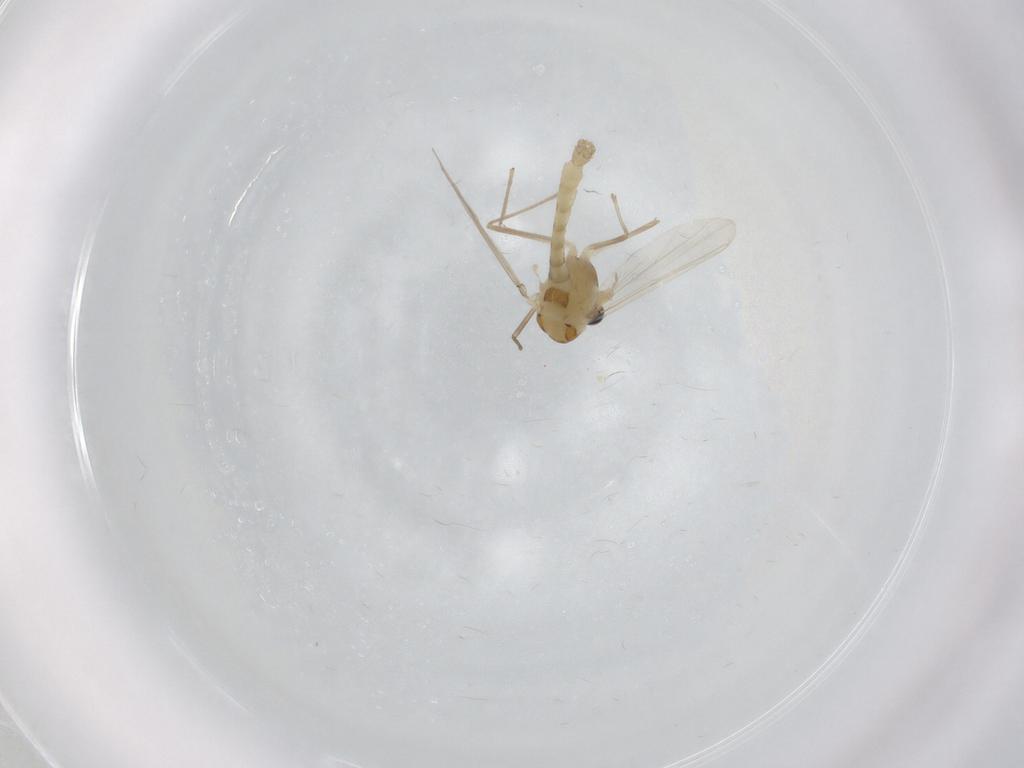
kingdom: Animalia
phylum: Arthropoda
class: Insecta
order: Diptera
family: Chironomidae
